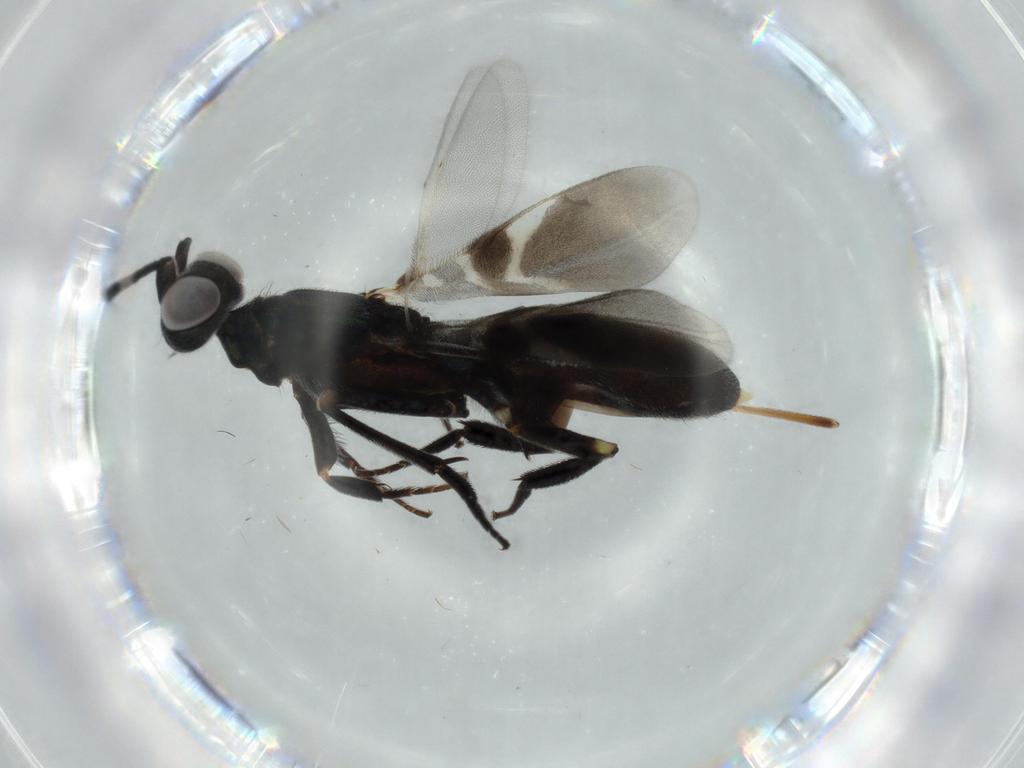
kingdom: Animalia
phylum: Arthropoda
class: Insecta
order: Hymenoptera
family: Eupelmidae
